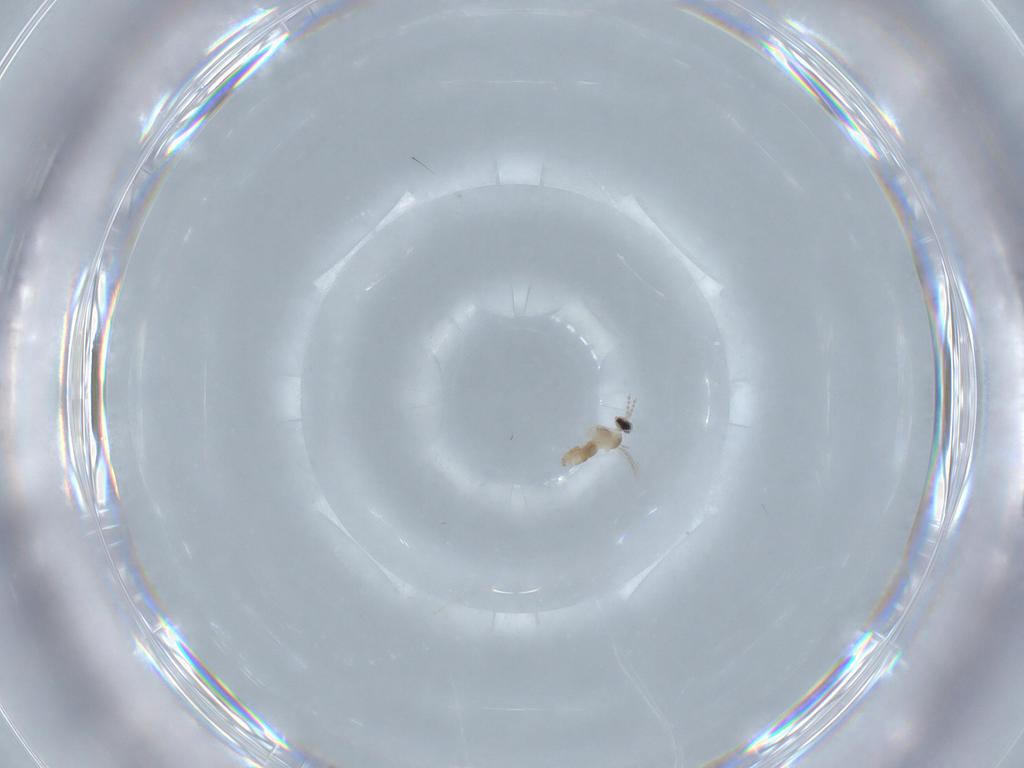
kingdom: Animalia
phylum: Arthropoda
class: Insecta
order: Diptera
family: Cecidomyiidae
